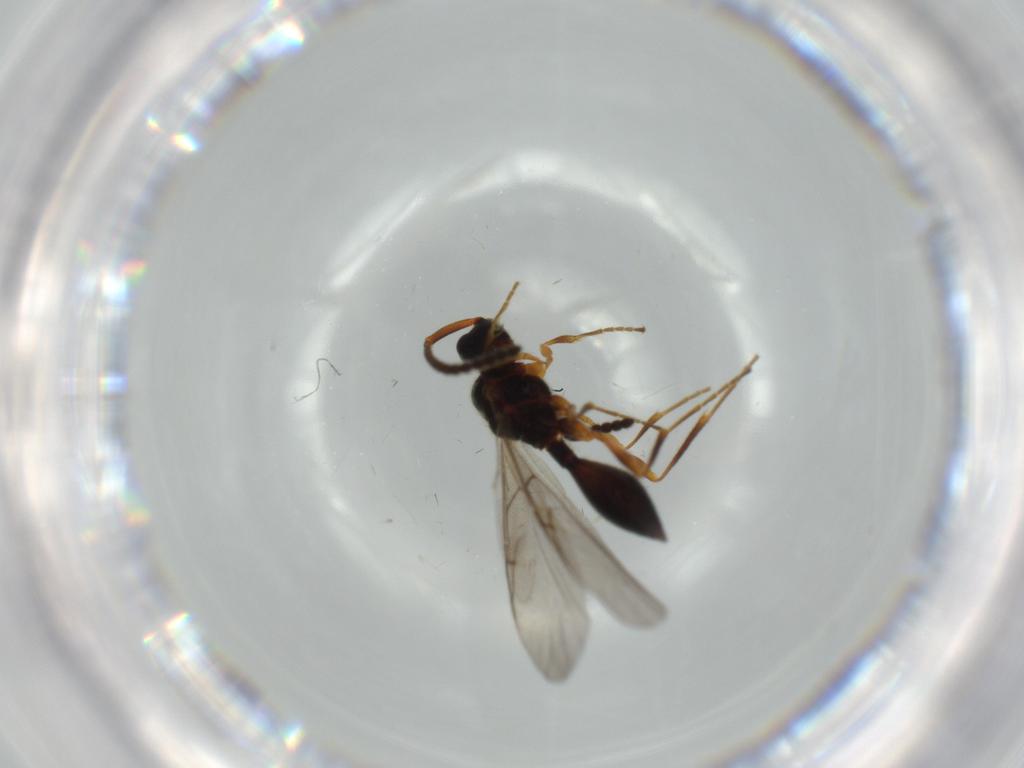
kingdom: Animalia
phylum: Arthropoda
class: Insecta
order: Hymenoptera
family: Diapriidae
